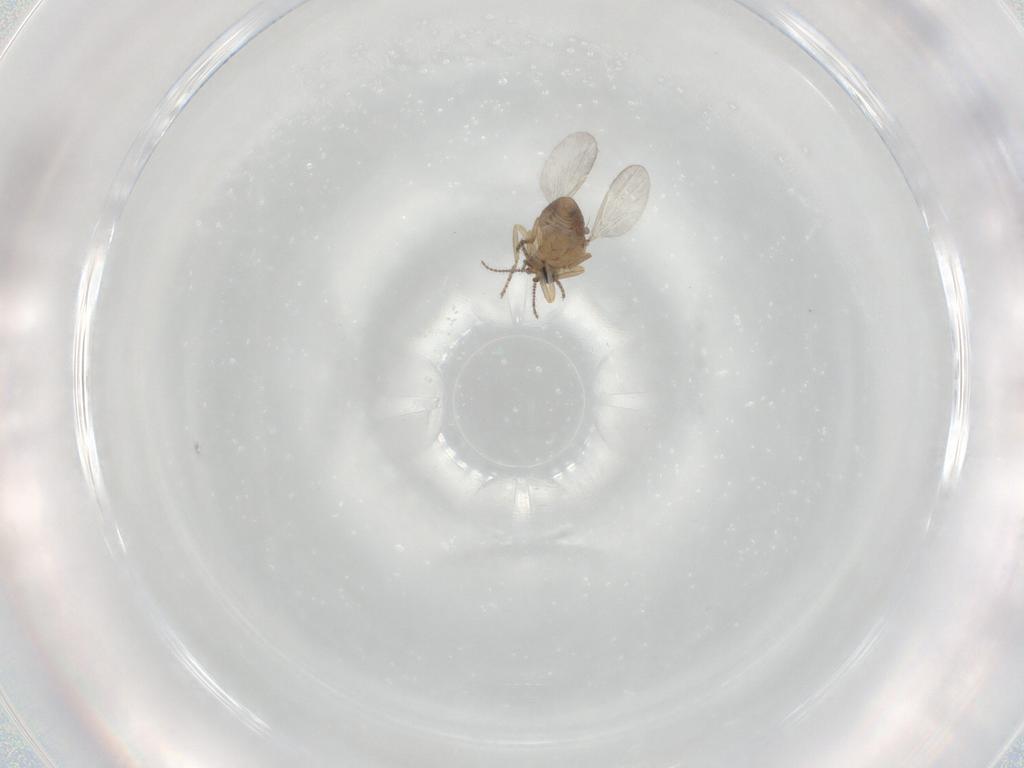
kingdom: Animalia
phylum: Arthropoda
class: Insecta
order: Diptera
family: Ceratopogonidae
